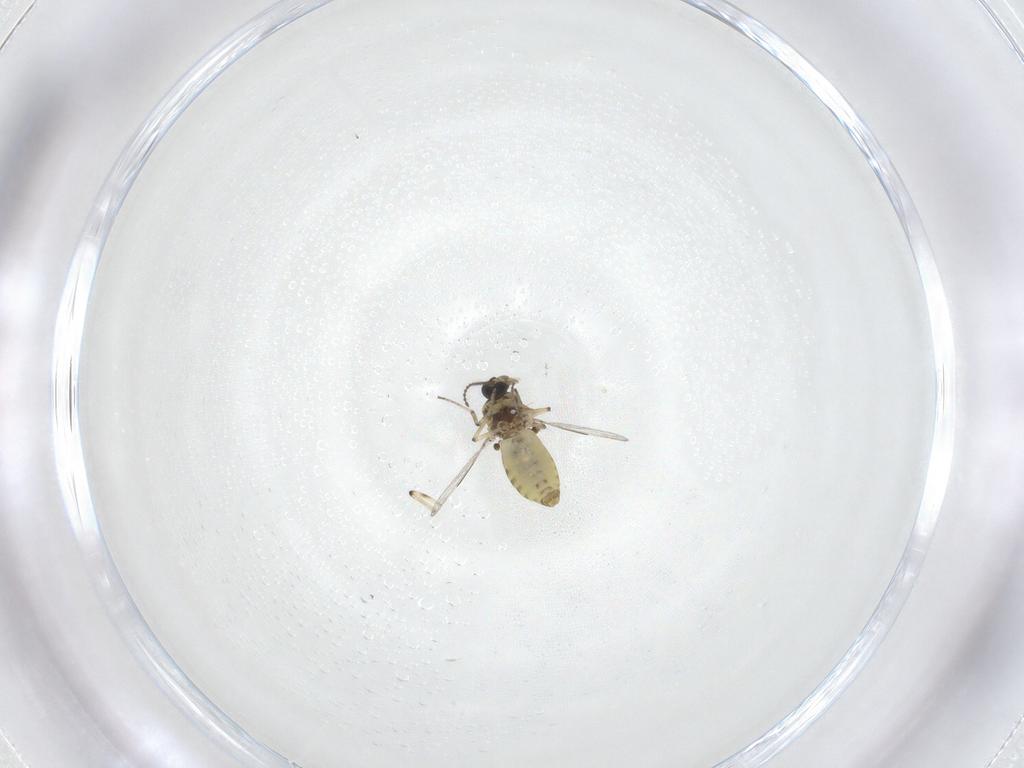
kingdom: Animalia
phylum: Arthropoda
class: Insecta
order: Diptera
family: Ceratopogonidae
